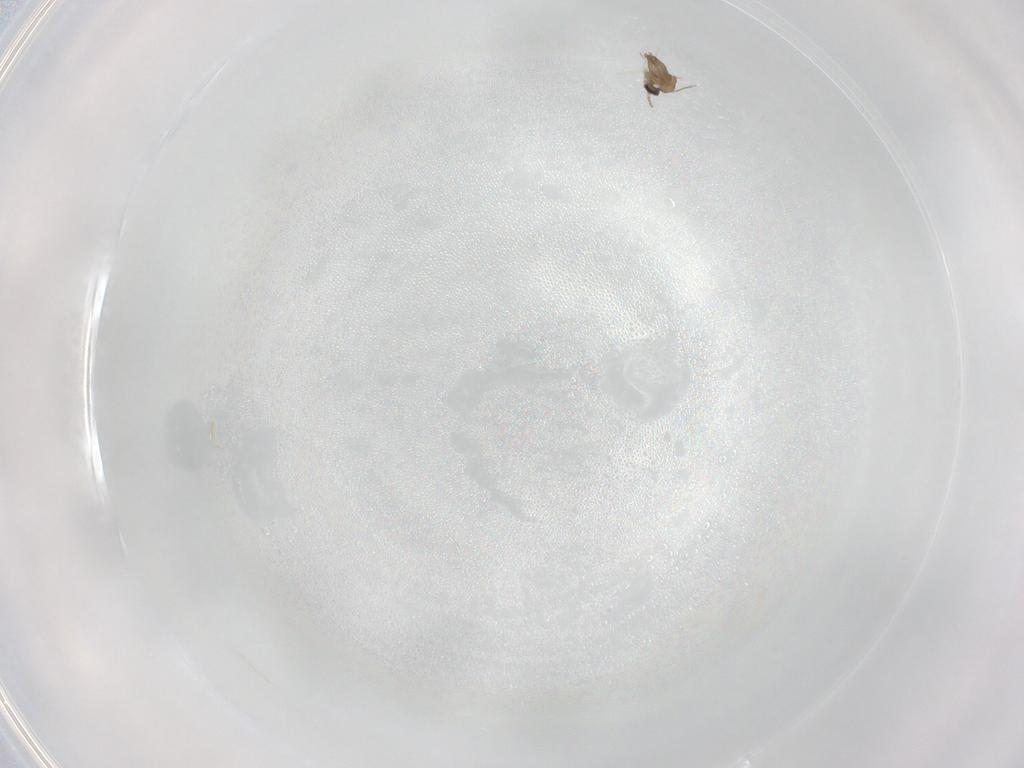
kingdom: Animalia
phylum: Arthropoda
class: Insecta
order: Diptera
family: Cecidomyiidae
